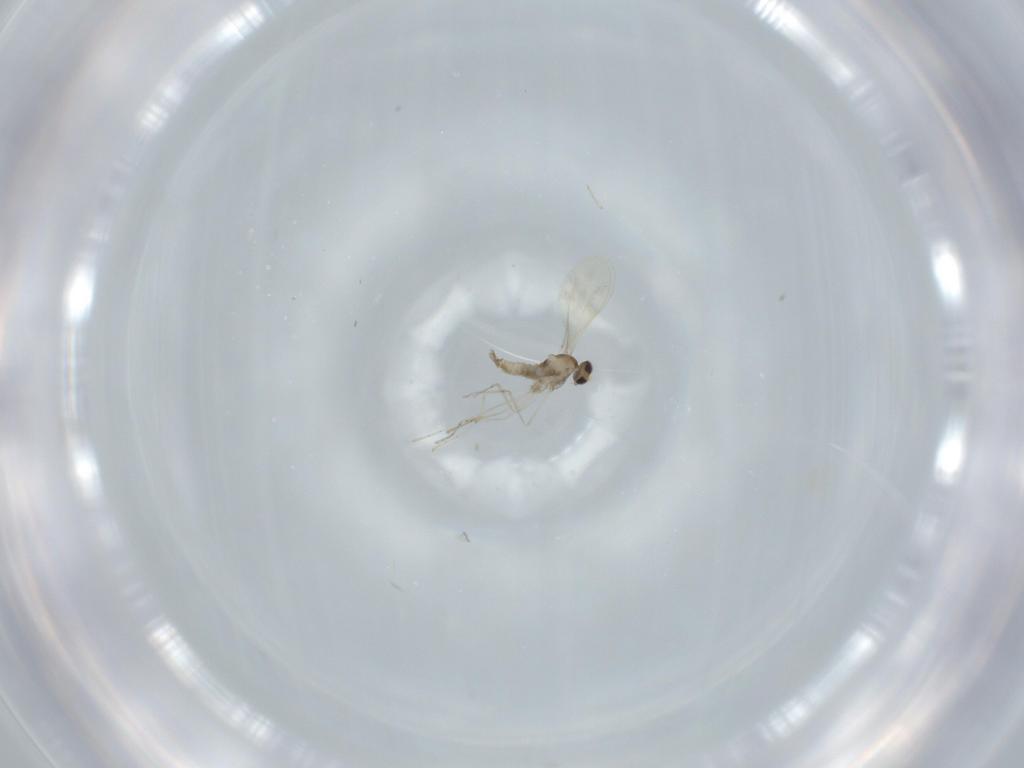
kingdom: Animalia
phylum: Arthropoda
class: Insecta
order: Diptera
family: Cecidomyiidae
